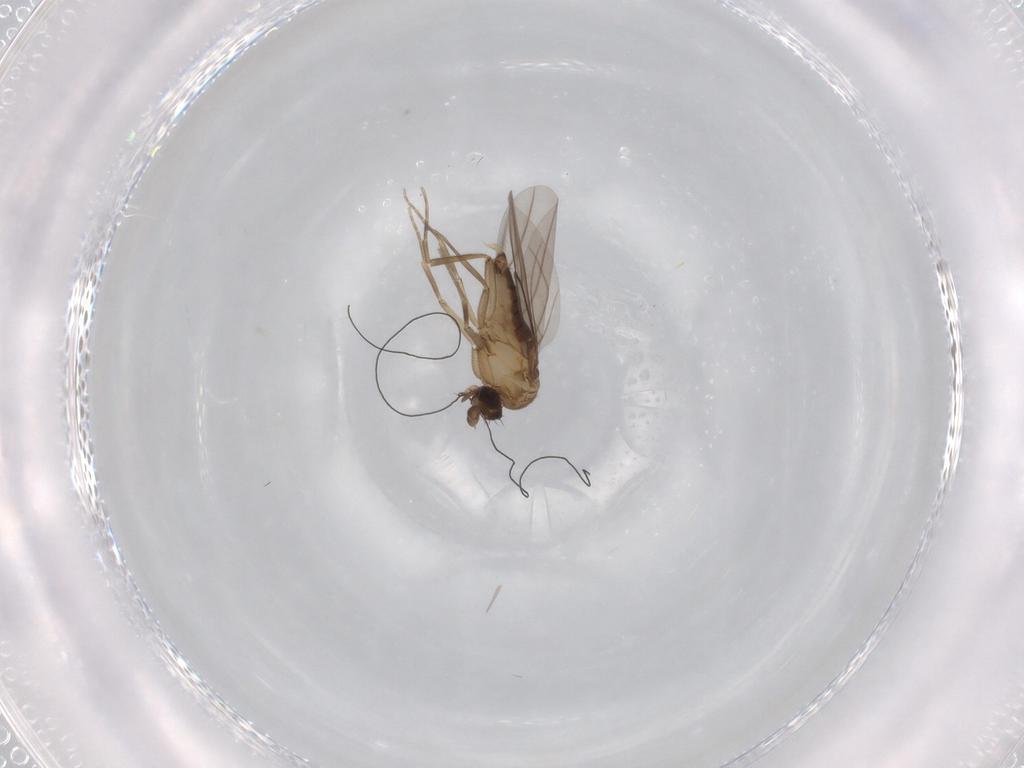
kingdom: Animalia
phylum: Arthropoda
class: Insecta
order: Diptera
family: Phoridae
